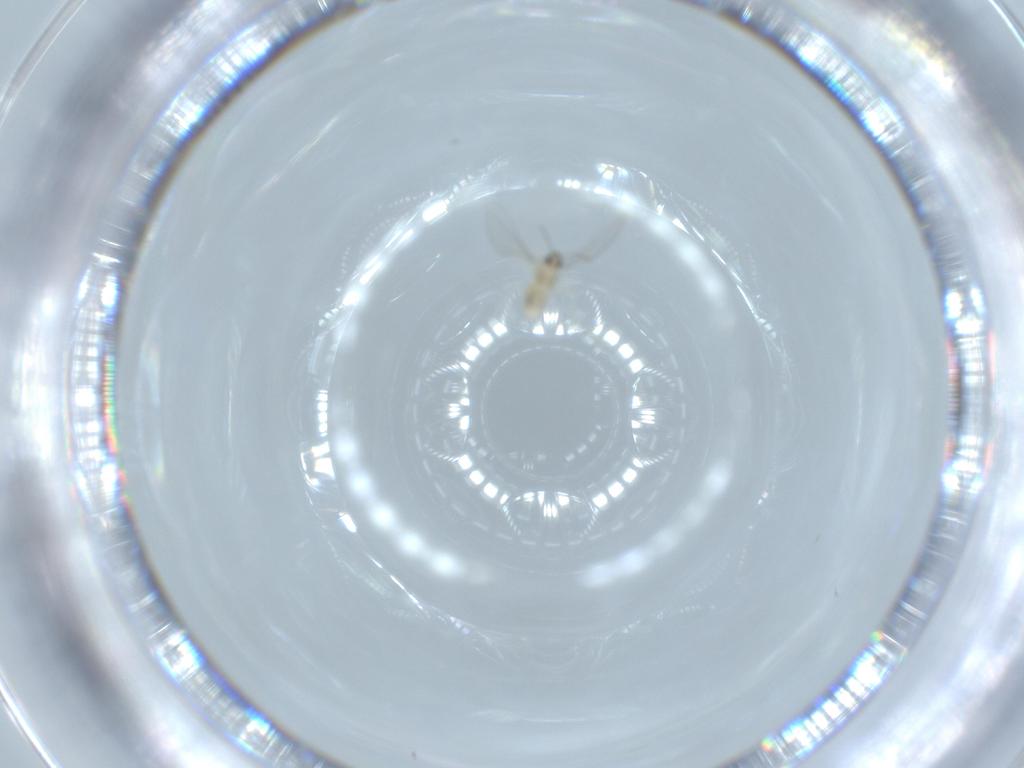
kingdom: Animalia
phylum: Arthropoda
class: Insecta
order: Diptera
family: Cecidomyiidae
